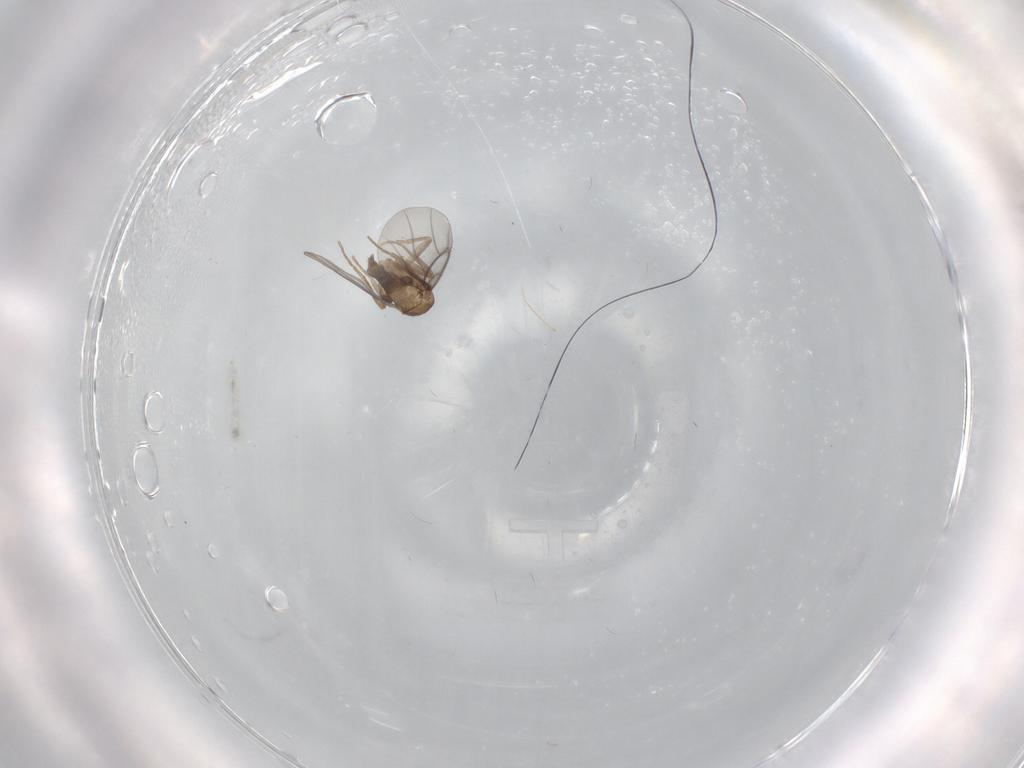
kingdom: Animalia
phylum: Arthropoda
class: Insecta
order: Diptera
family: Cecidomyiidae
